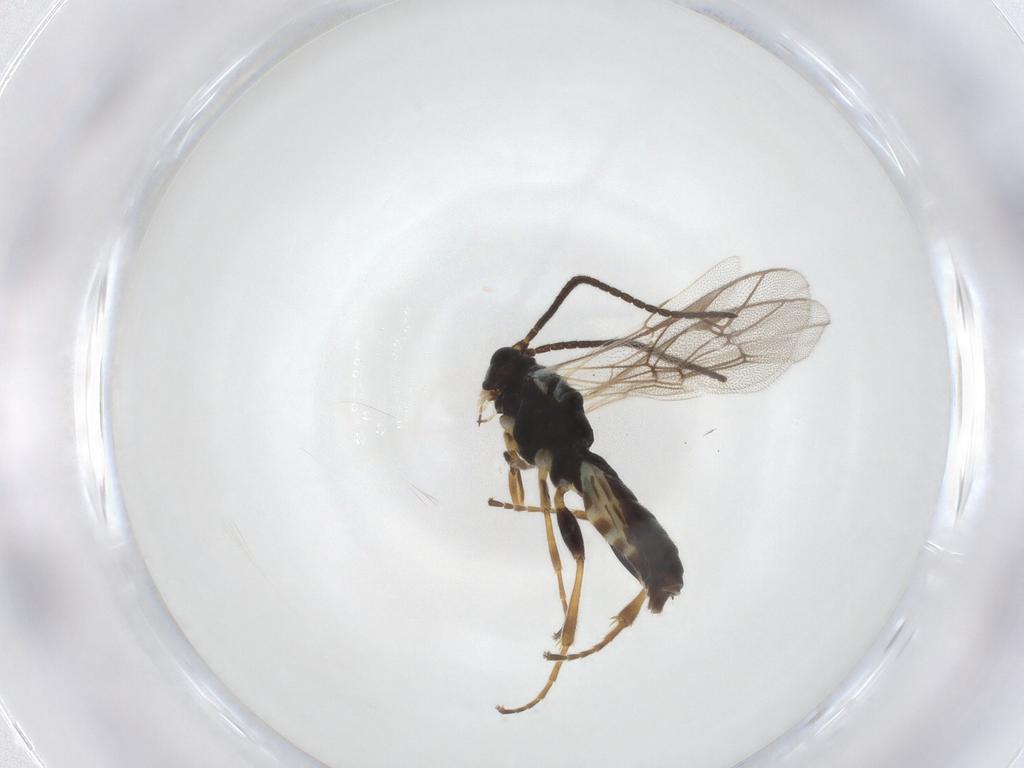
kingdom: Animalia
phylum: Arthropoda
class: Insecta
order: Hymenoptera
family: Ichneumonidae
